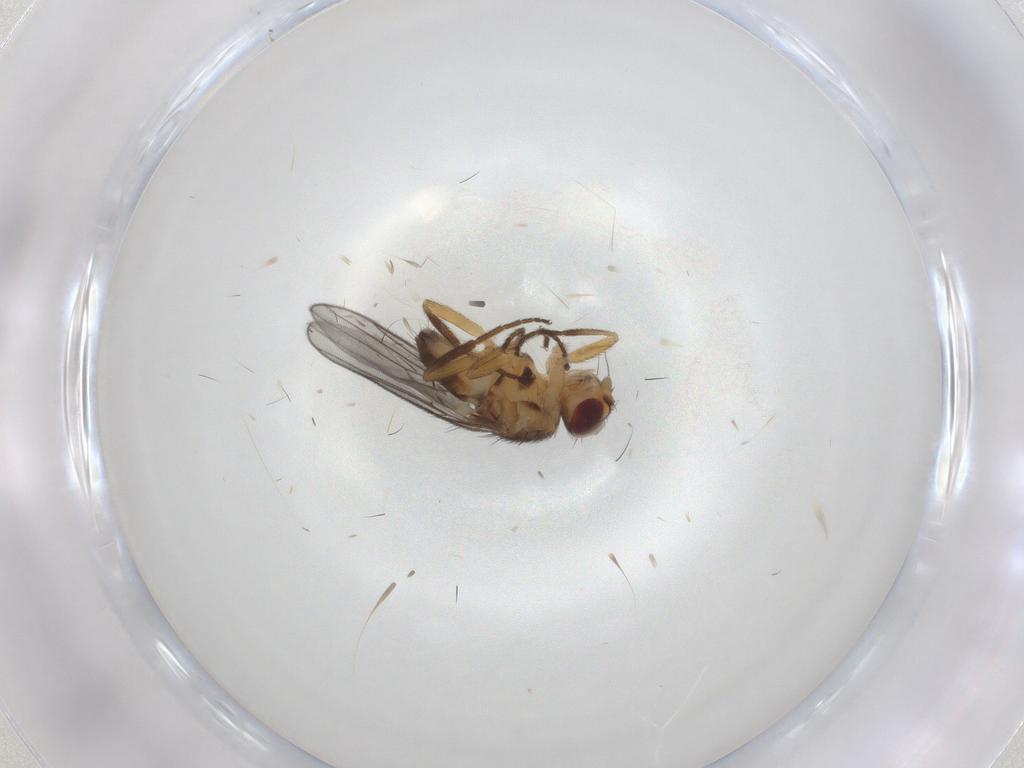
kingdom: Animalia
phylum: Arthropoda
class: Insecta
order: Diptera
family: Chloropidae
